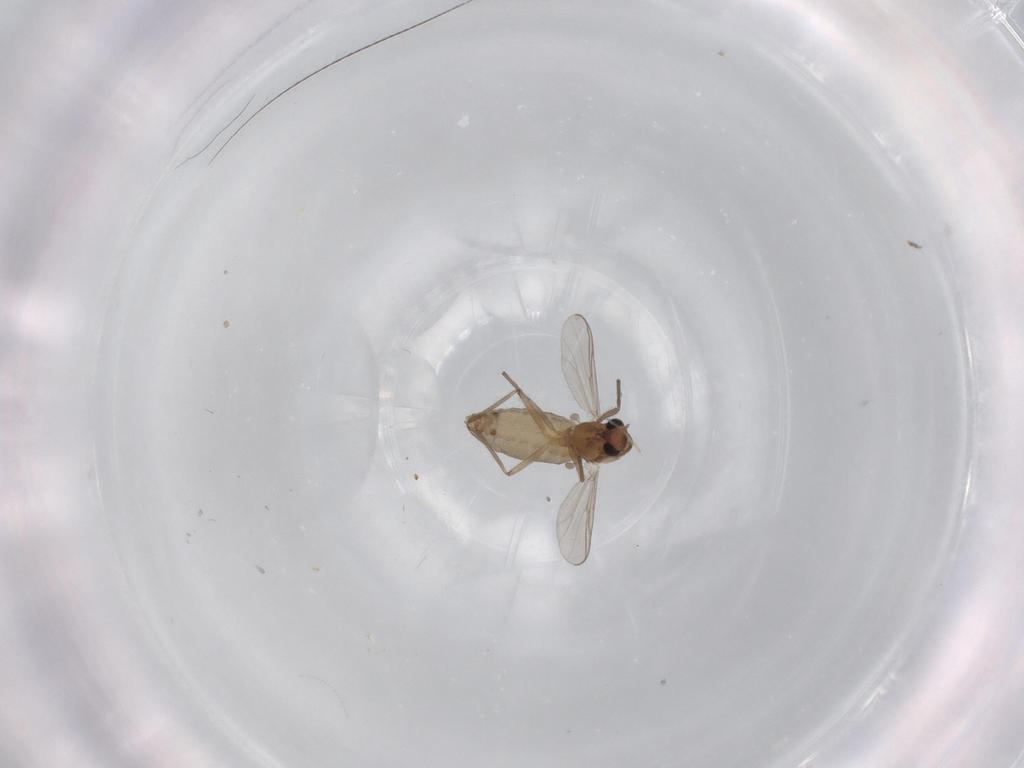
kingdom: Animalia
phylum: Arthropoda
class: Insecta
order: Diptera
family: Chironomidae
